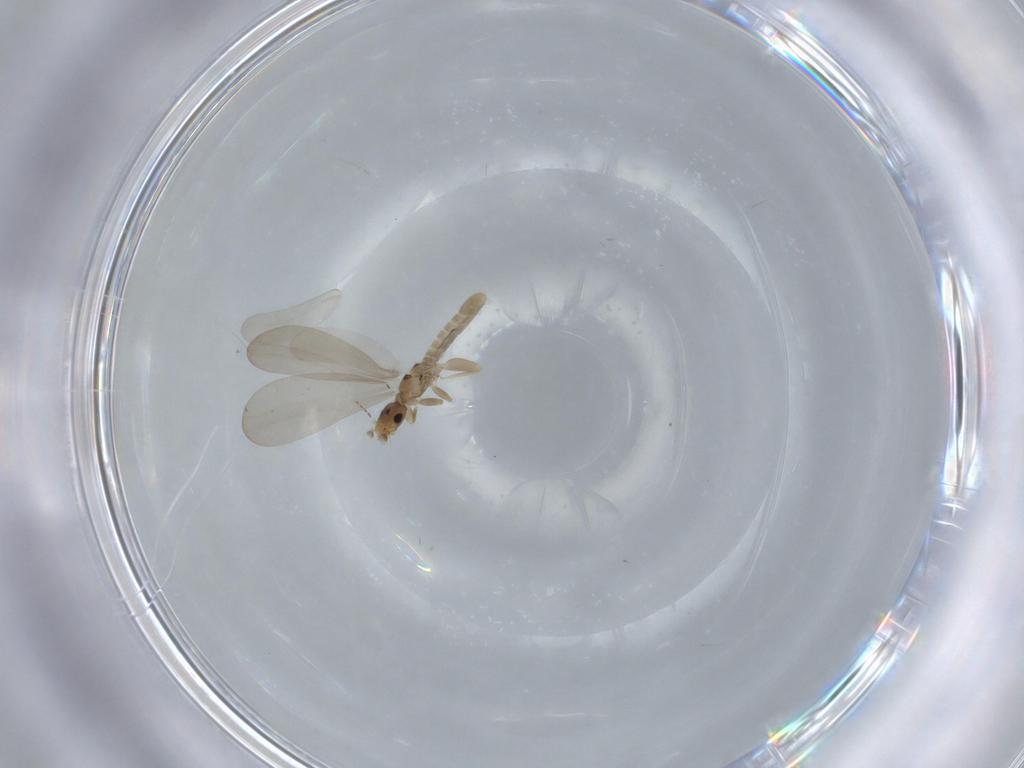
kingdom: Animalia
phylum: Arthropoda
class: Insecta
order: Psocodea
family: Liposcelididae
